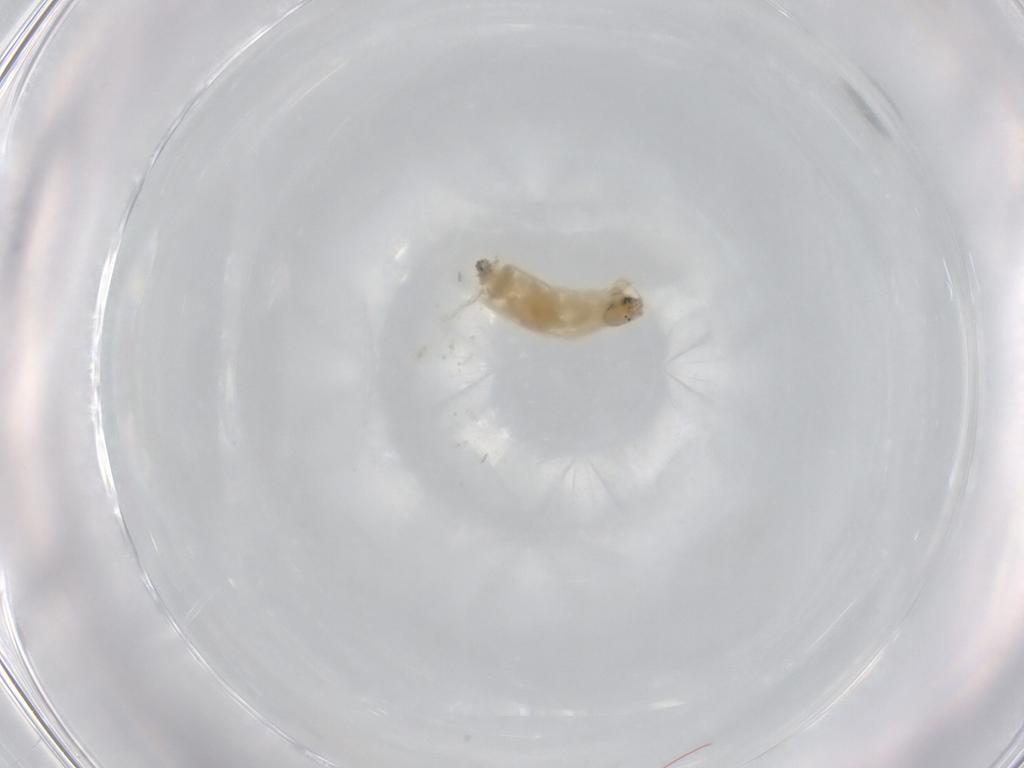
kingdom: Animalia
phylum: Arthropoda
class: Insecta
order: Diptera
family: Chironomidae
